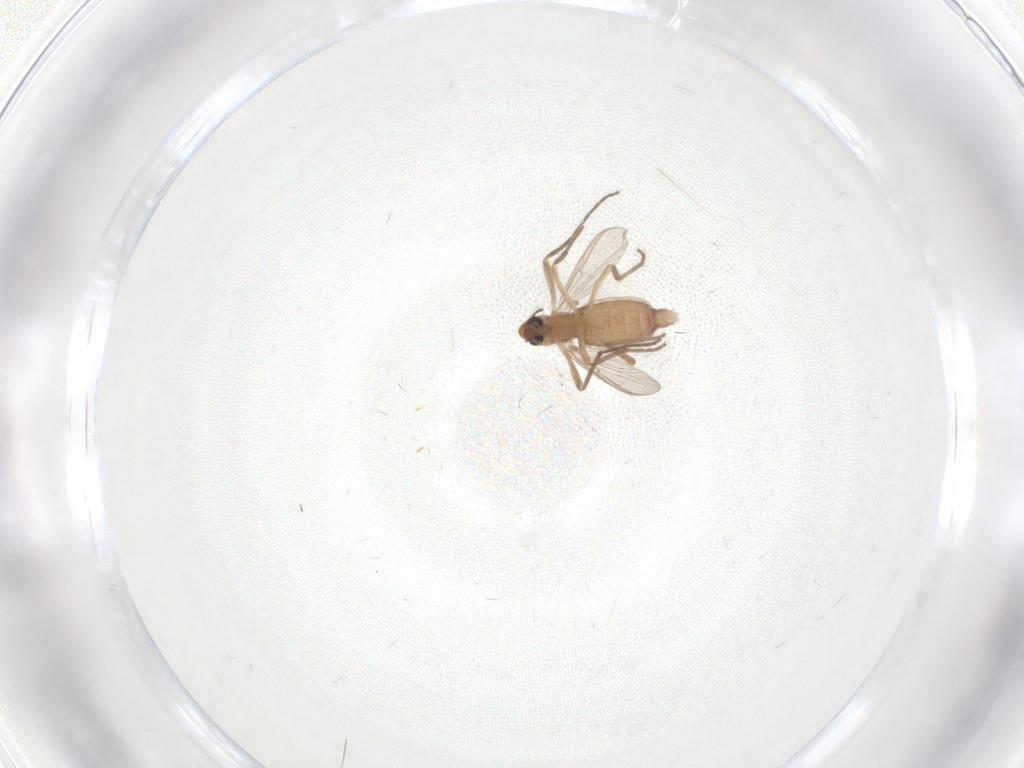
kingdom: Animalia
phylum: Arthropoda
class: Insecta
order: Diptera
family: Chironomidae
